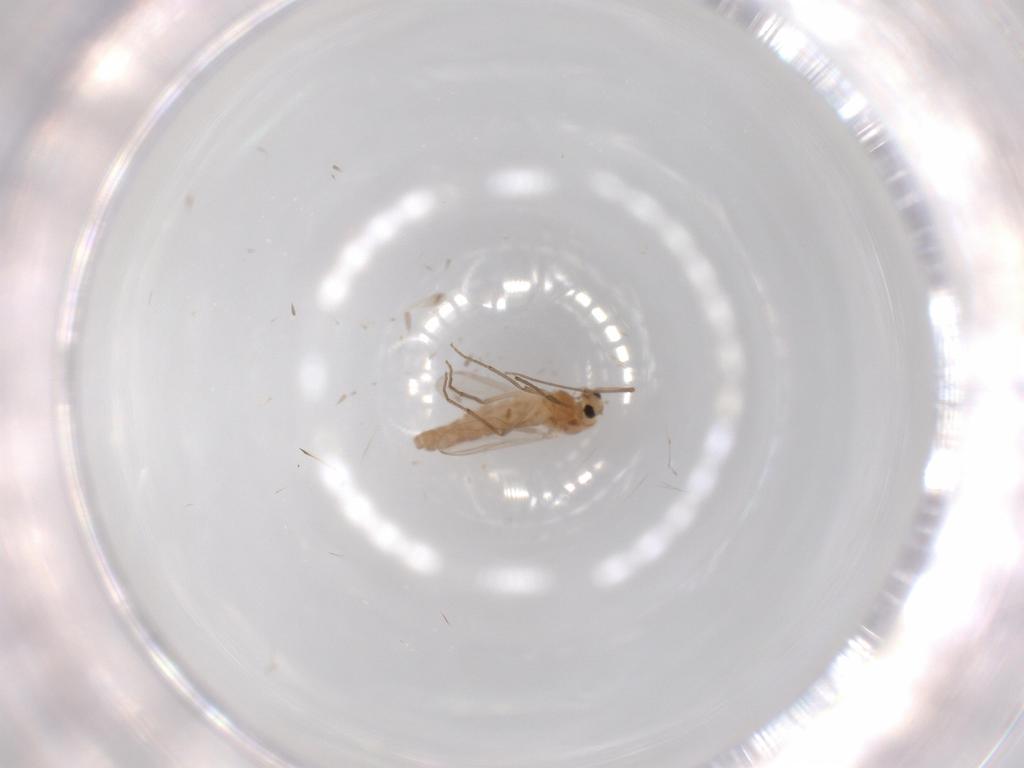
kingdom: Animalia
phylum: Arthropoda
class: Insecta
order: Diptera
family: Chironomidae
